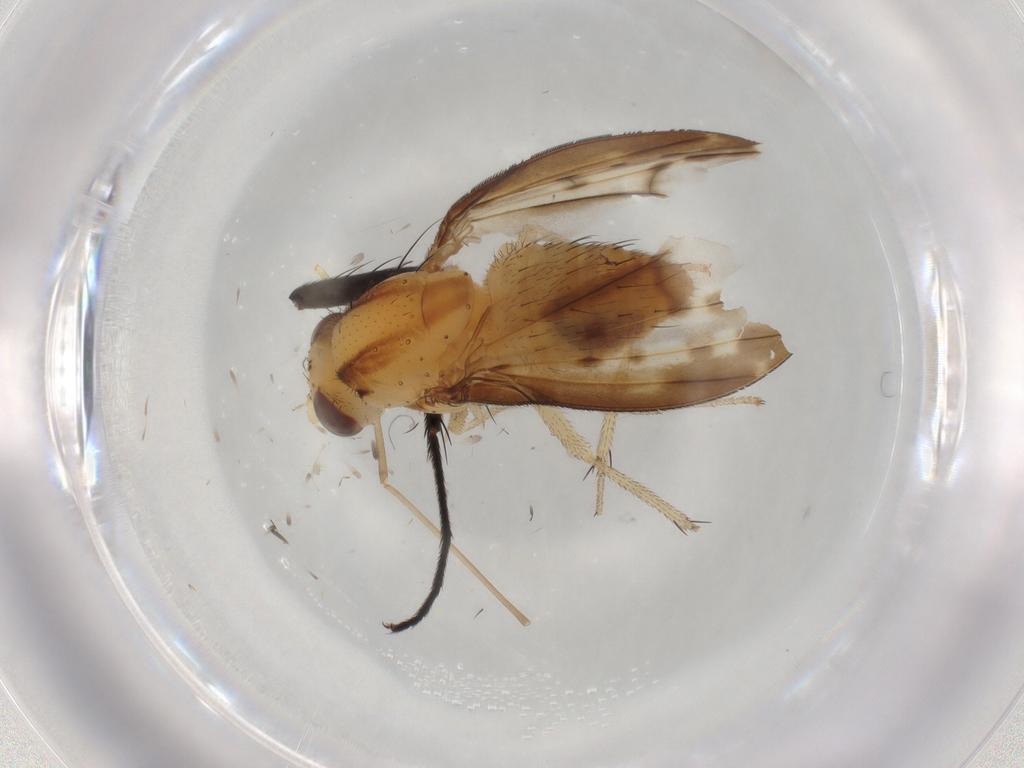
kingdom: Animalia
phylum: Arthropoda
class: Insecta
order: Diptera
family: Tachinidae
